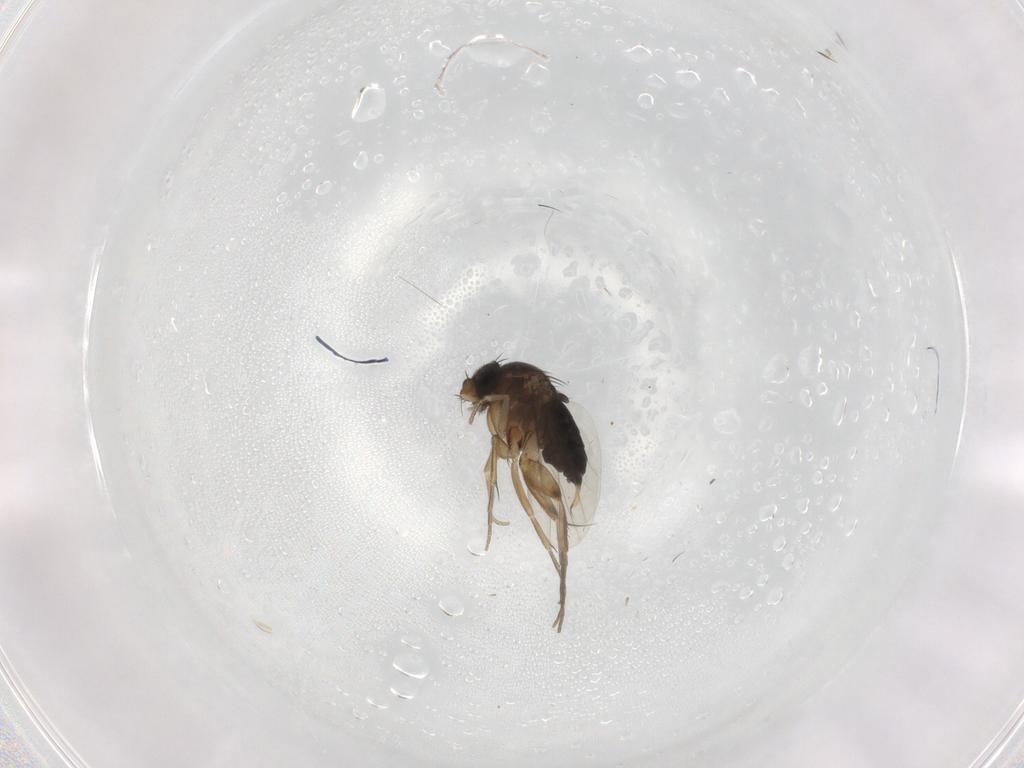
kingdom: Animalia
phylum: Arthropoda
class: Insecta
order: Diptera
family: Phoridae
